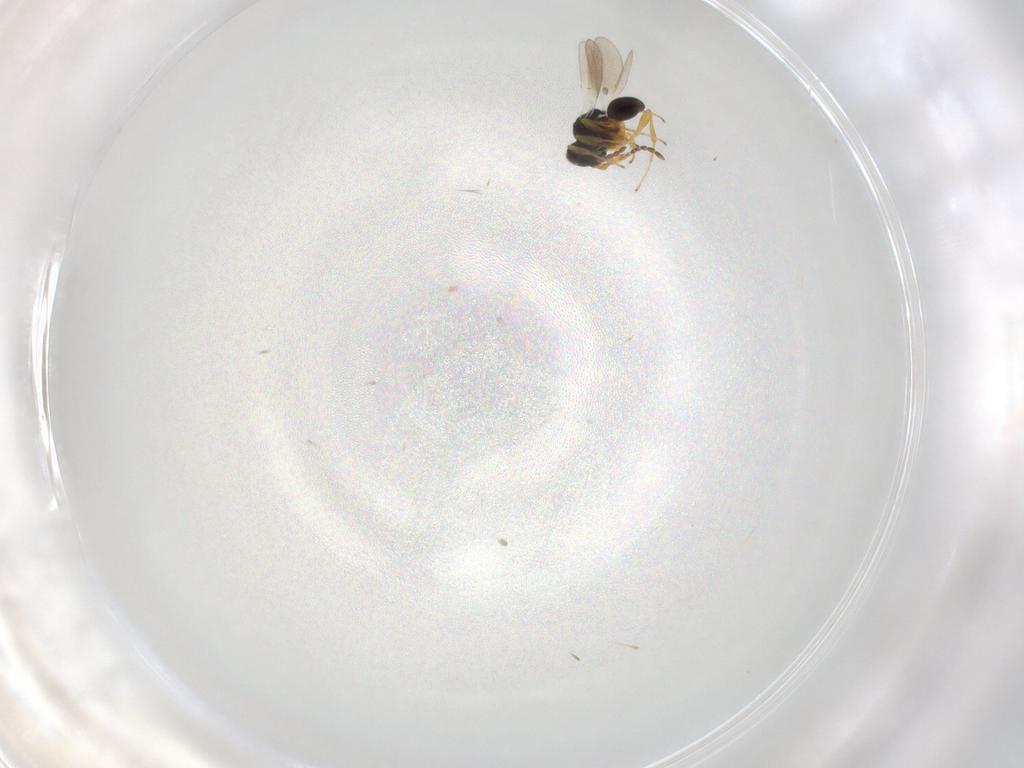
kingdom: Animalia
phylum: Arthropoda
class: Insecta
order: Hymenoptera
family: Platygastridae
